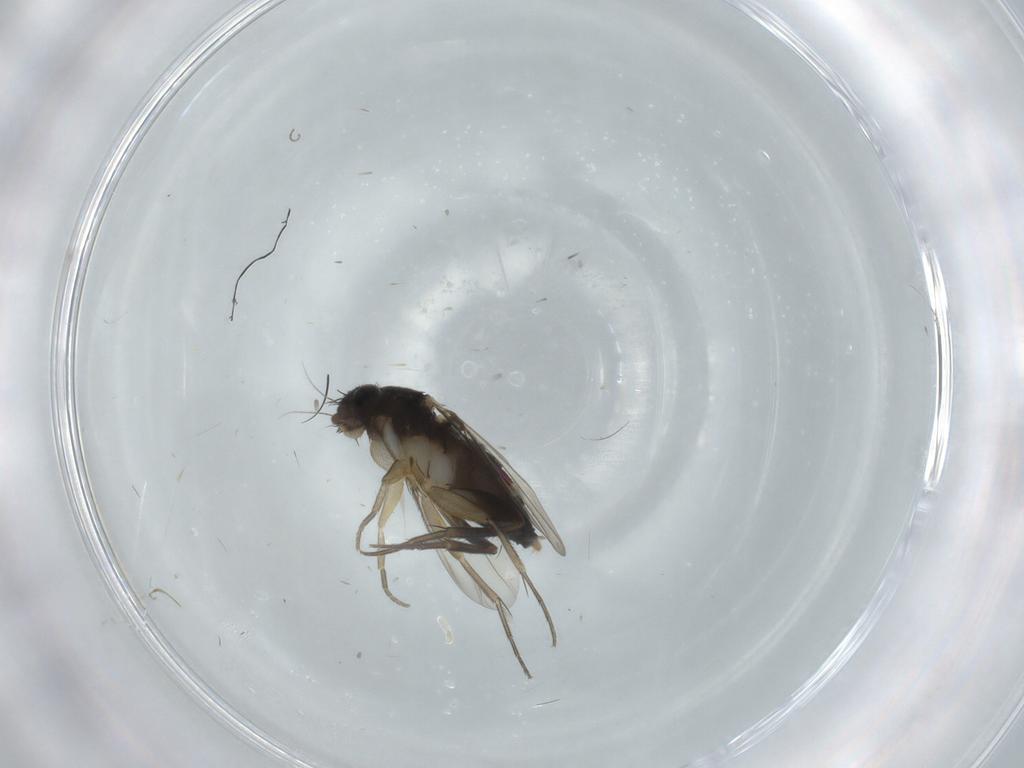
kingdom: Animalia
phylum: Arthropoda
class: Insecta
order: Diptera
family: Phoridae
